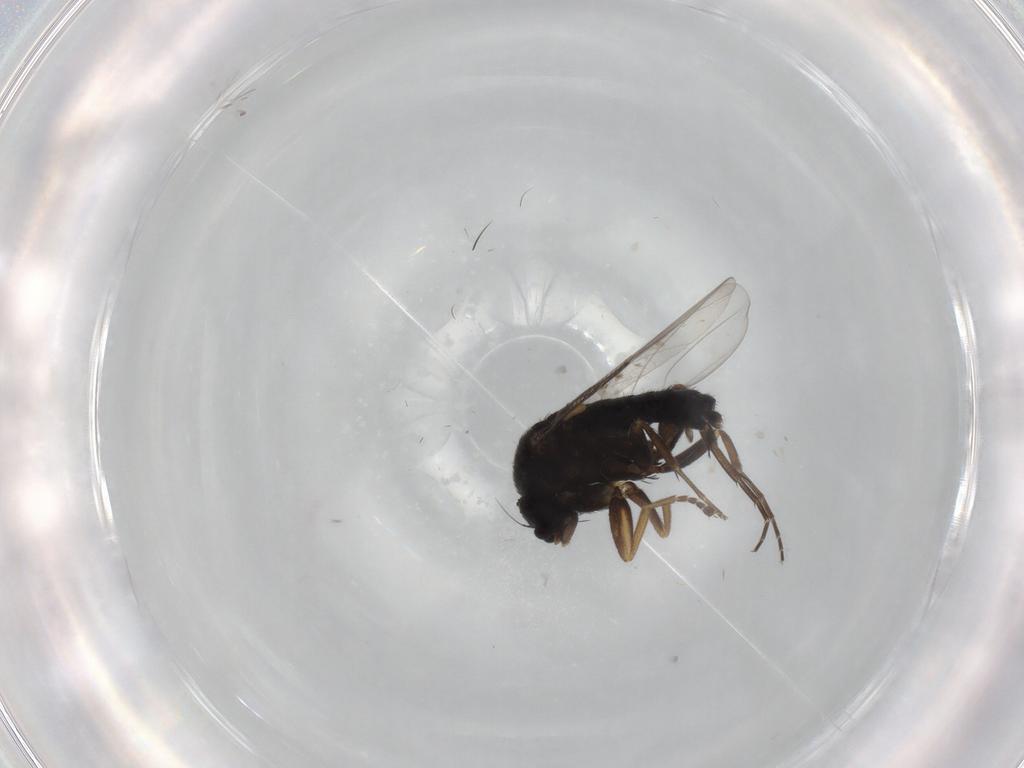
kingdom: Animalia
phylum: Arthropoda
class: Insecta
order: Diptera
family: Phoridae
